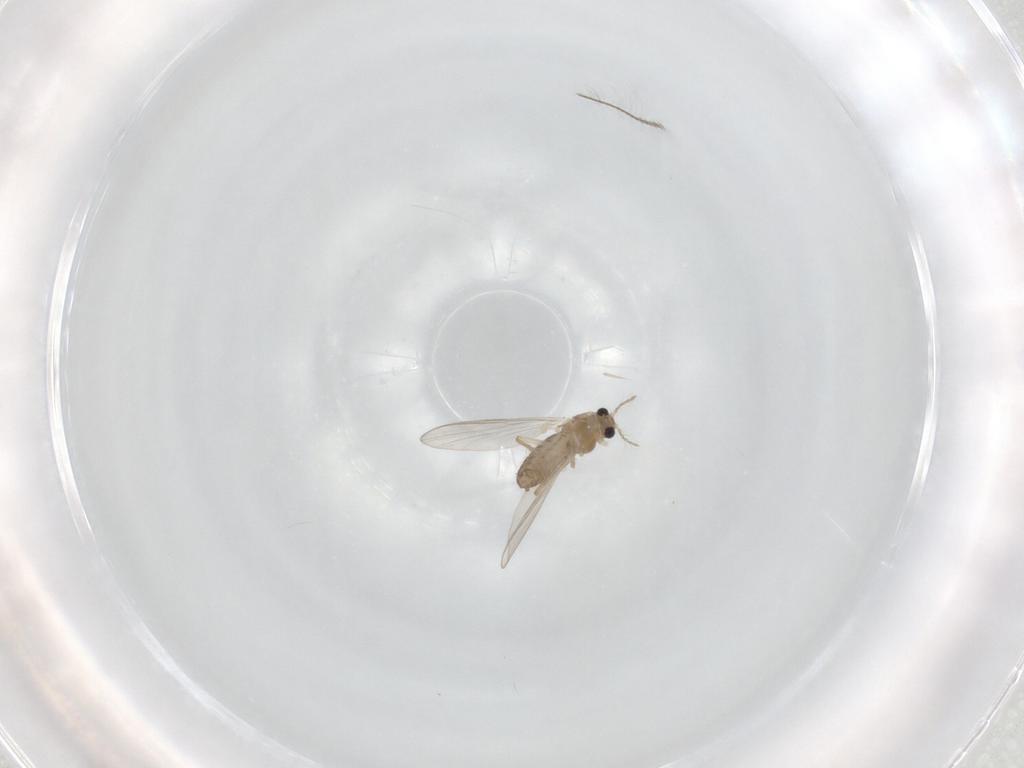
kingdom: Animalia
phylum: Arthropoda
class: Insecta
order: Diptera
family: Chironomidae
